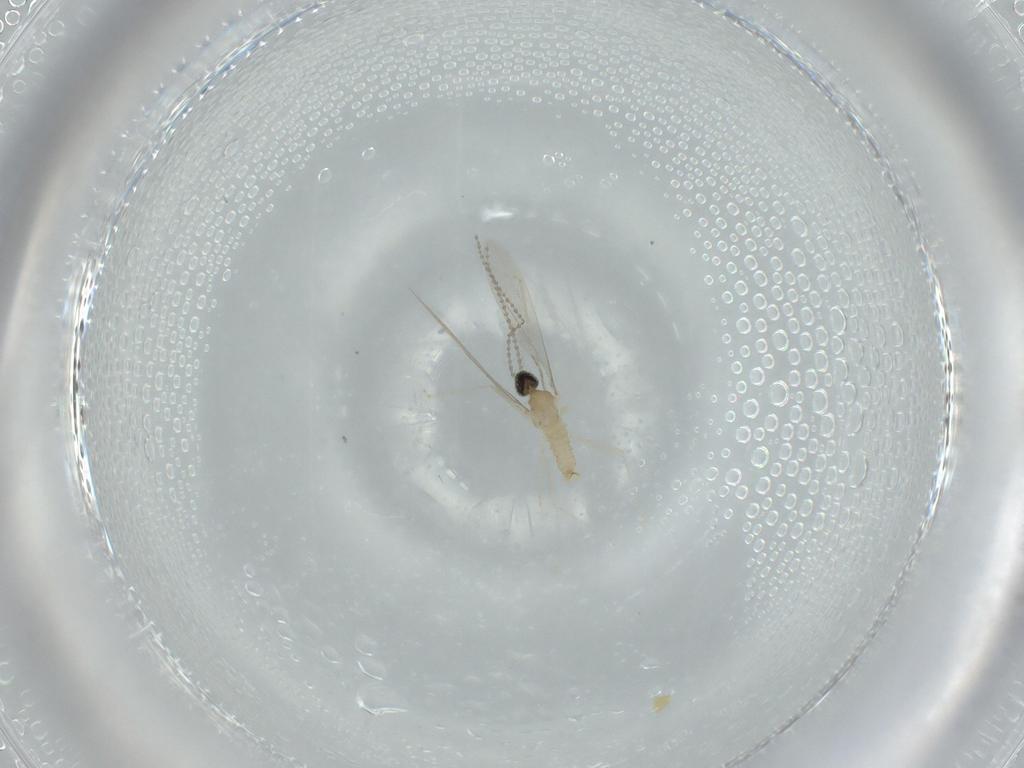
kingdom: Animalia
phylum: Arthropoda
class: Insecta
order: Diptera
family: Cecidomyiidae
